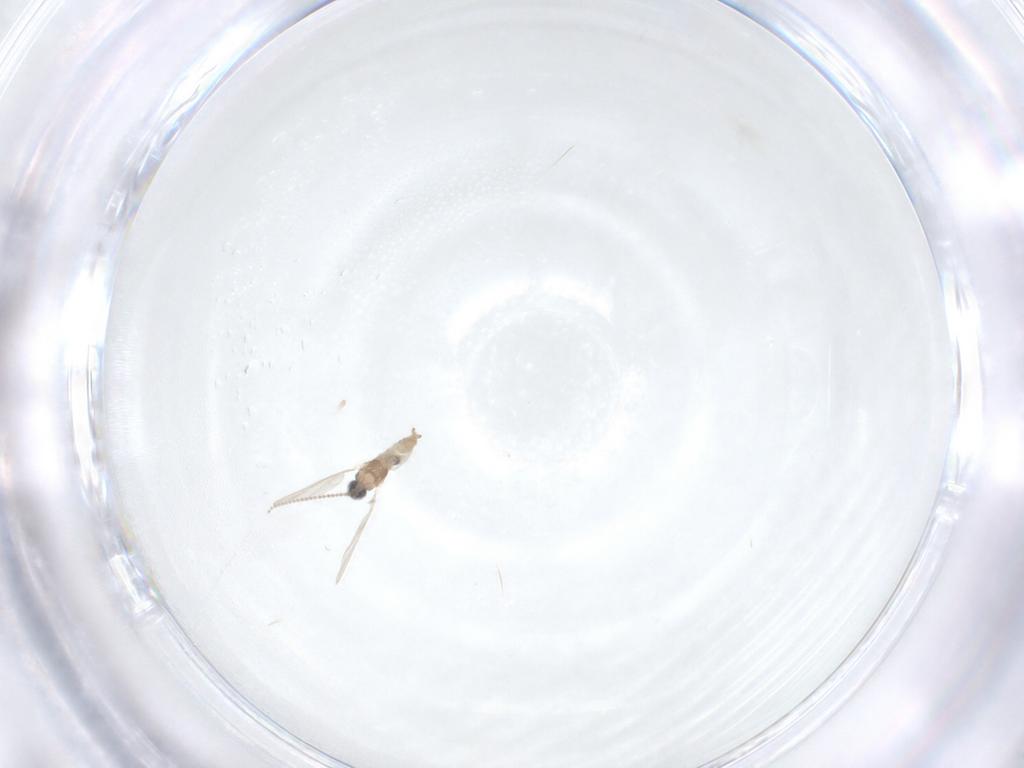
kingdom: Animalia
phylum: Arthropoda
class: Insecta
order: Diptera
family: Cecidomyiidae
